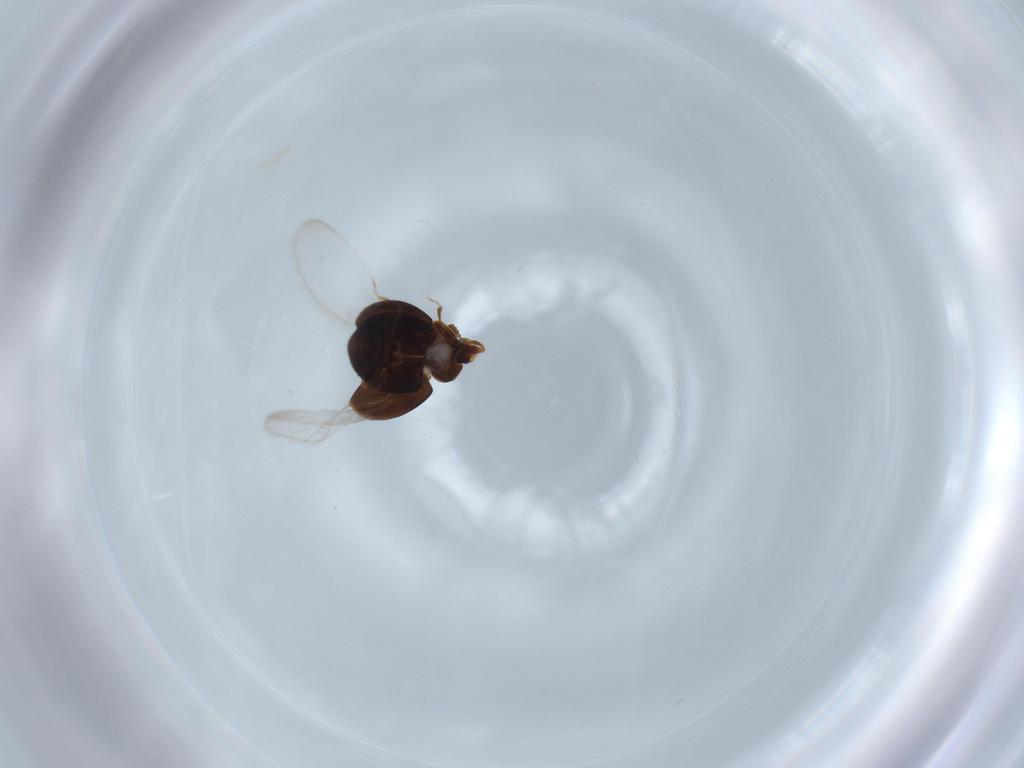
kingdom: Animalia
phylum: Arthropoda
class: Insecta
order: Coleoptera
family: Corylophidae
